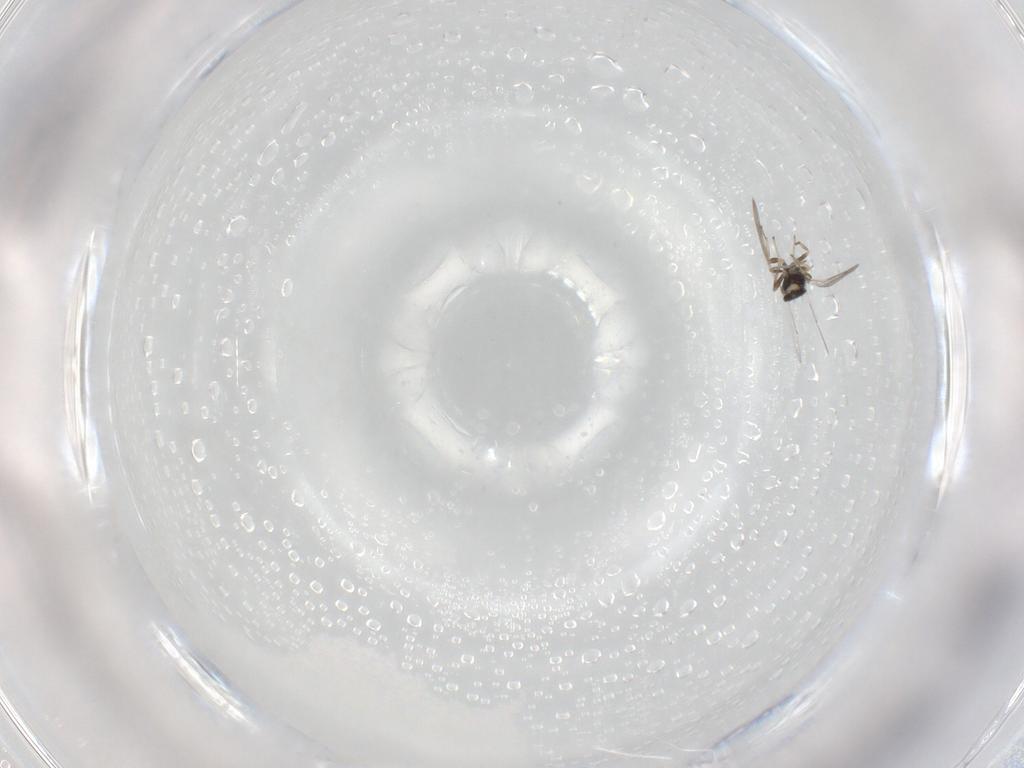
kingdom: Animalia
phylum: Arthropoda
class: Insecta
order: Hymenoptera
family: Eulophidae
